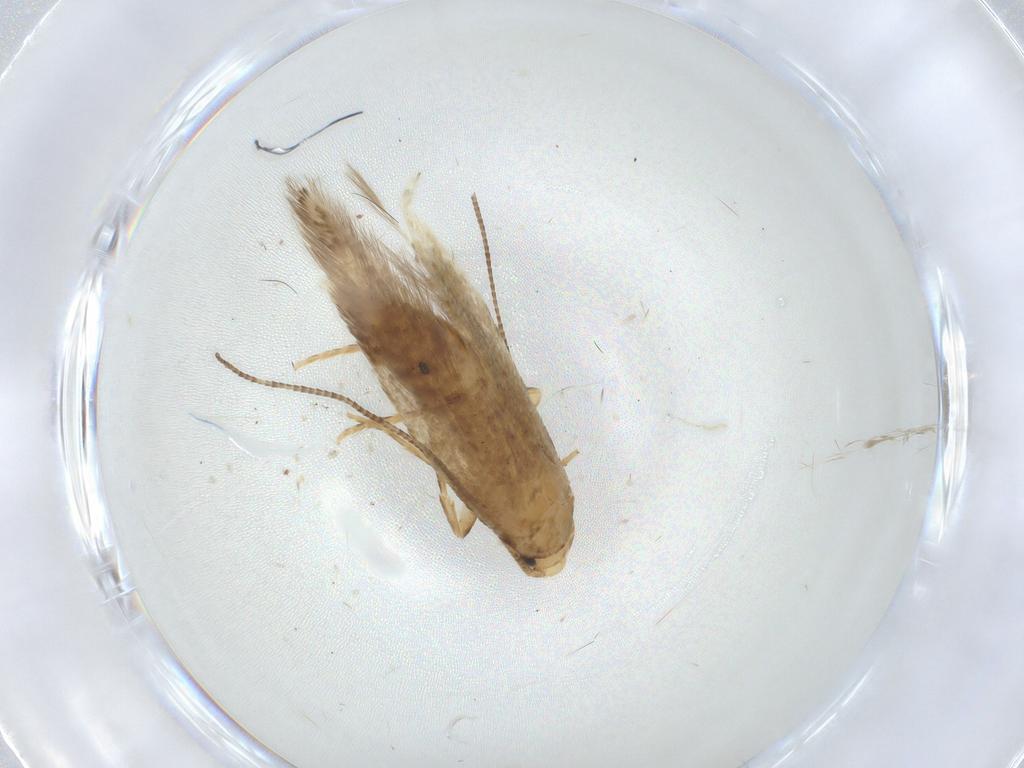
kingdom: Animalia
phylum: Arthropoda
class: Insecta
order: Lepidoptera
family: Tineidae
